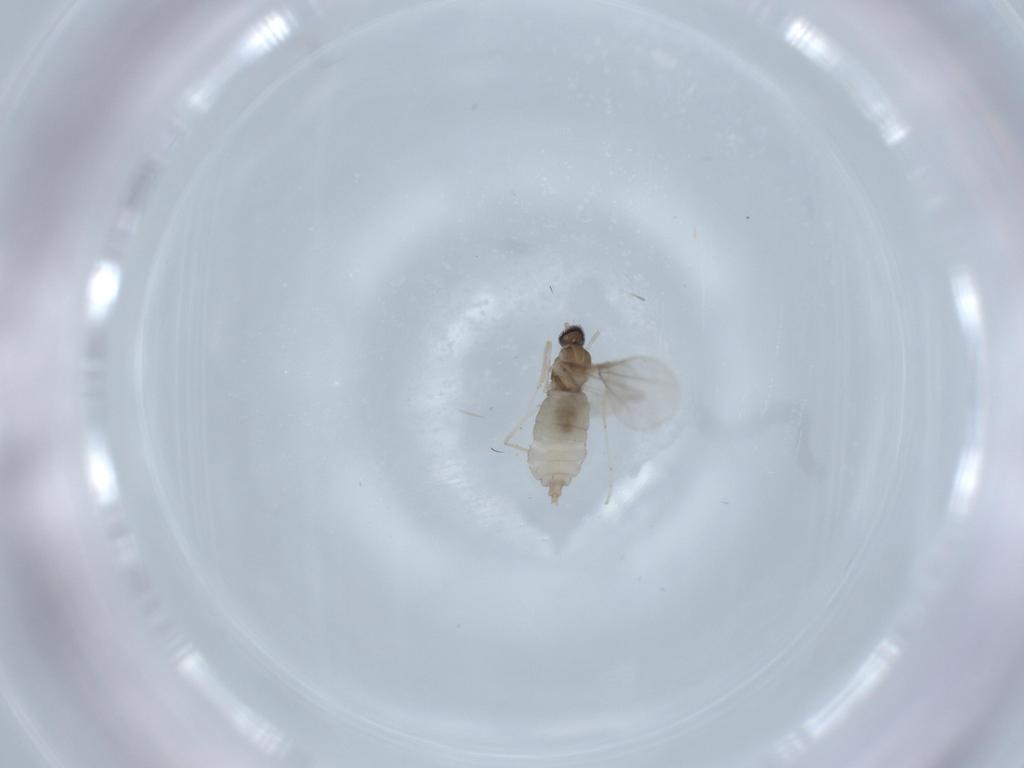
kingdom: Animalia
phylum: Arthropoda
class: Insecta
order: Diptera
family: Cecidomyiidae
